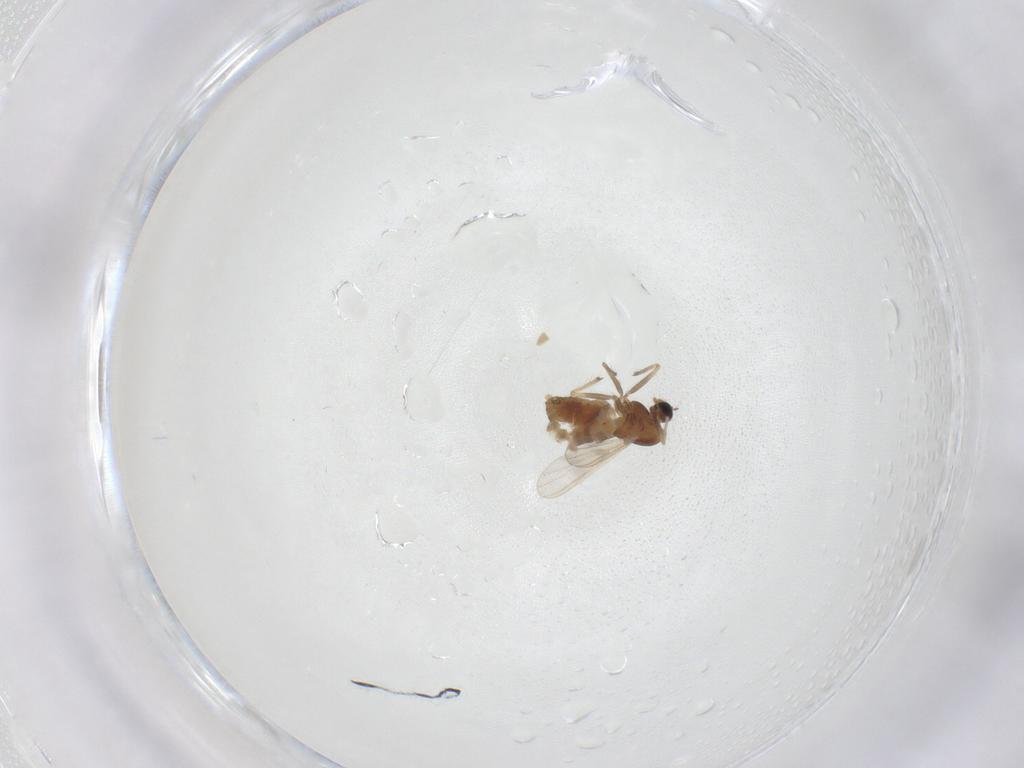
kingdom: Animalia
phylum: Arthropoda
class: Insecta
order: Diptera
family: Chironomidae
